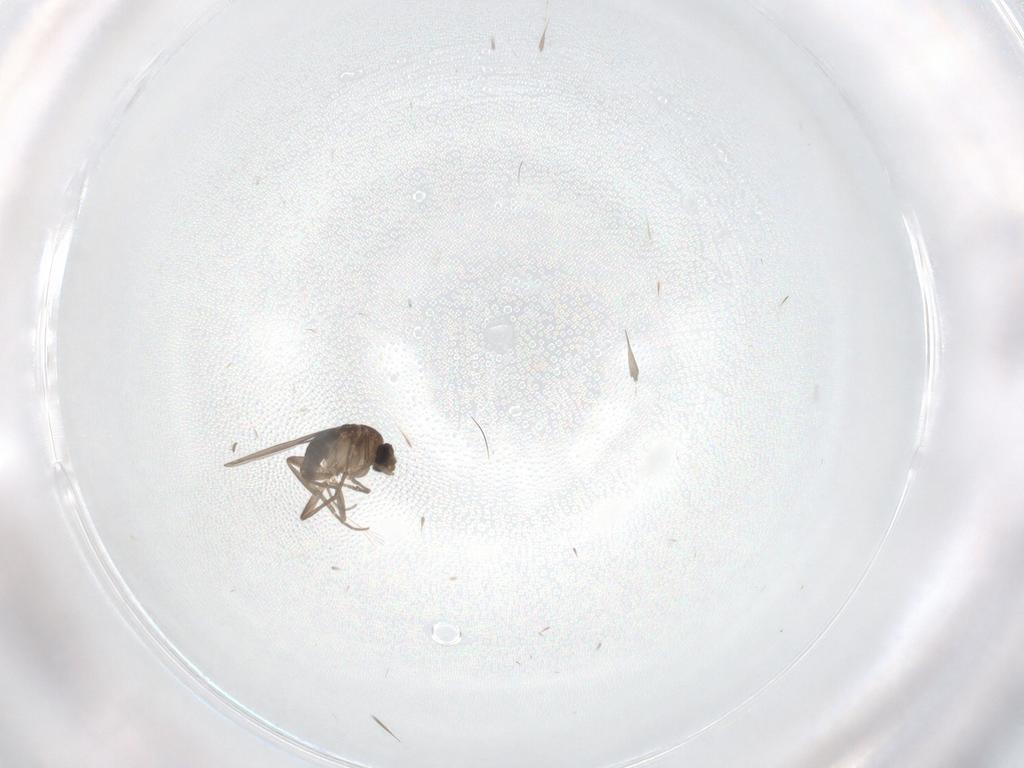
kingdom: Animalia
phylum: Arthropoda
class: Insecta
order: Diptera
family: Phoridae
